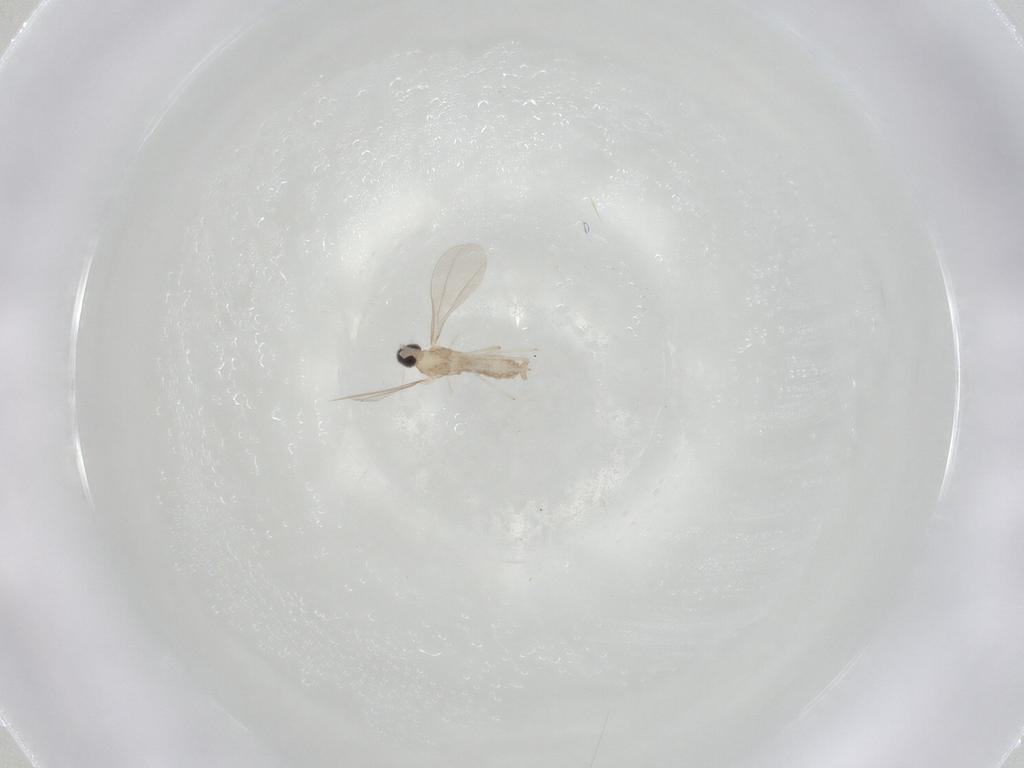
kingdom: Animalia
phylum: Arthropoda
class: Insecta
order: Diptera
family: Cecidomyiidae
